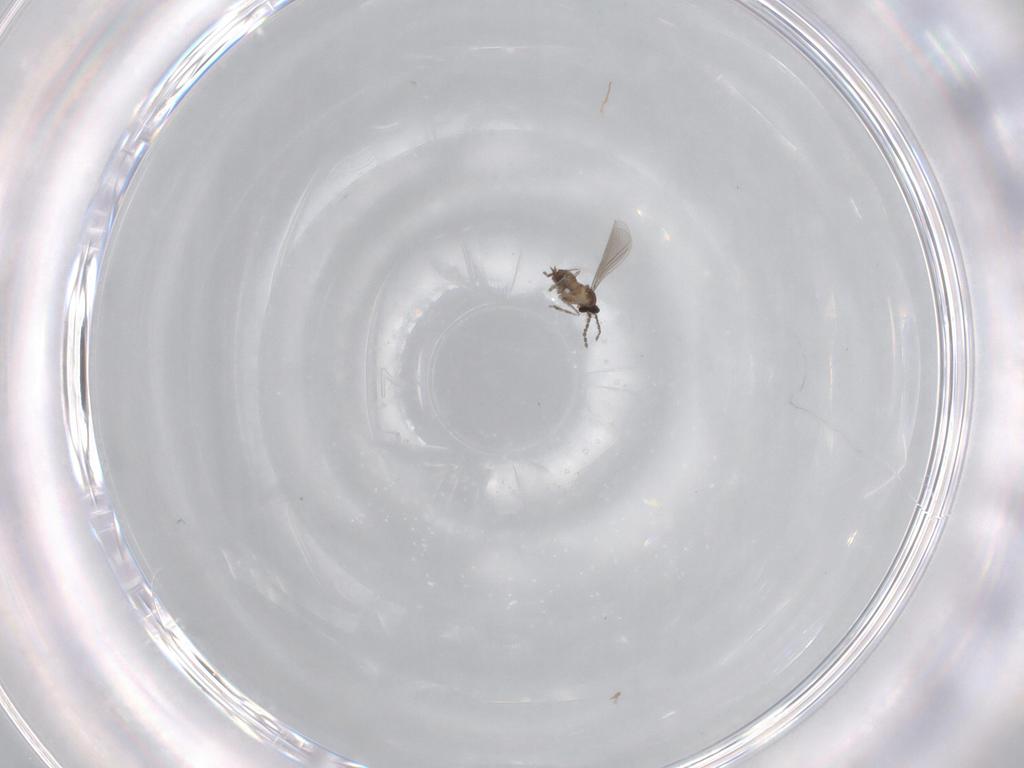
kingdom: Animalia
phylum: Arthropoda
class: Insecta
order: Diptera
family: Cecidomyiidae
